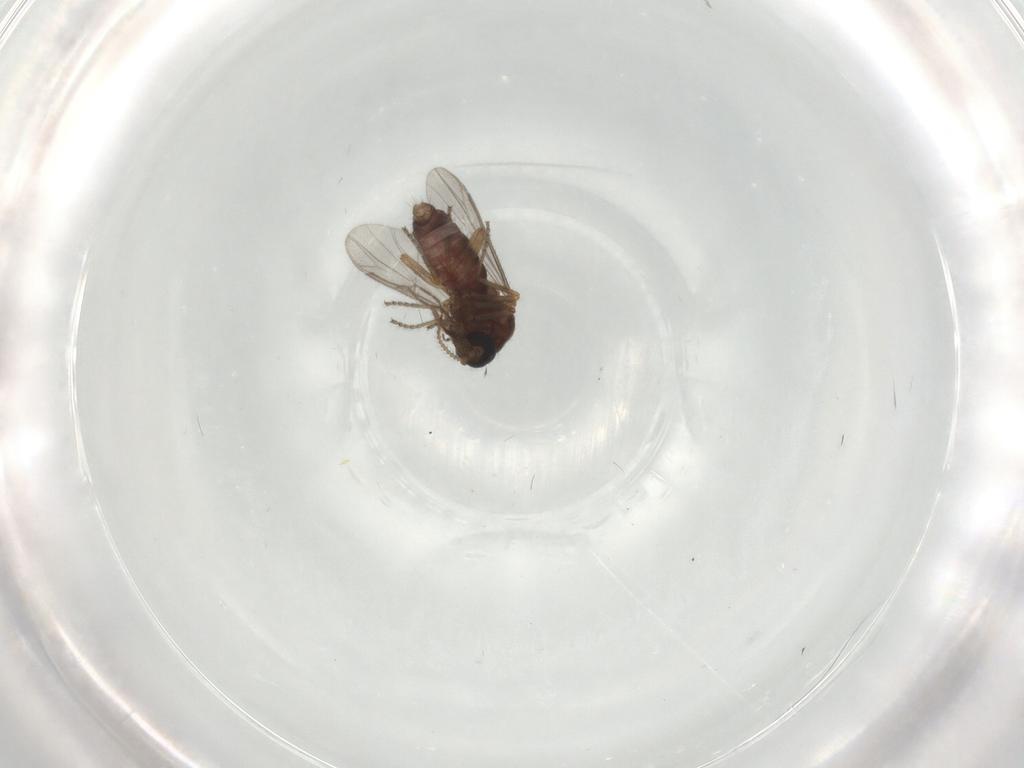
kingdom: Animalia
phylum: Arthropoda
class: Insecta
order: Diptera
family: Ceratopogonidae
